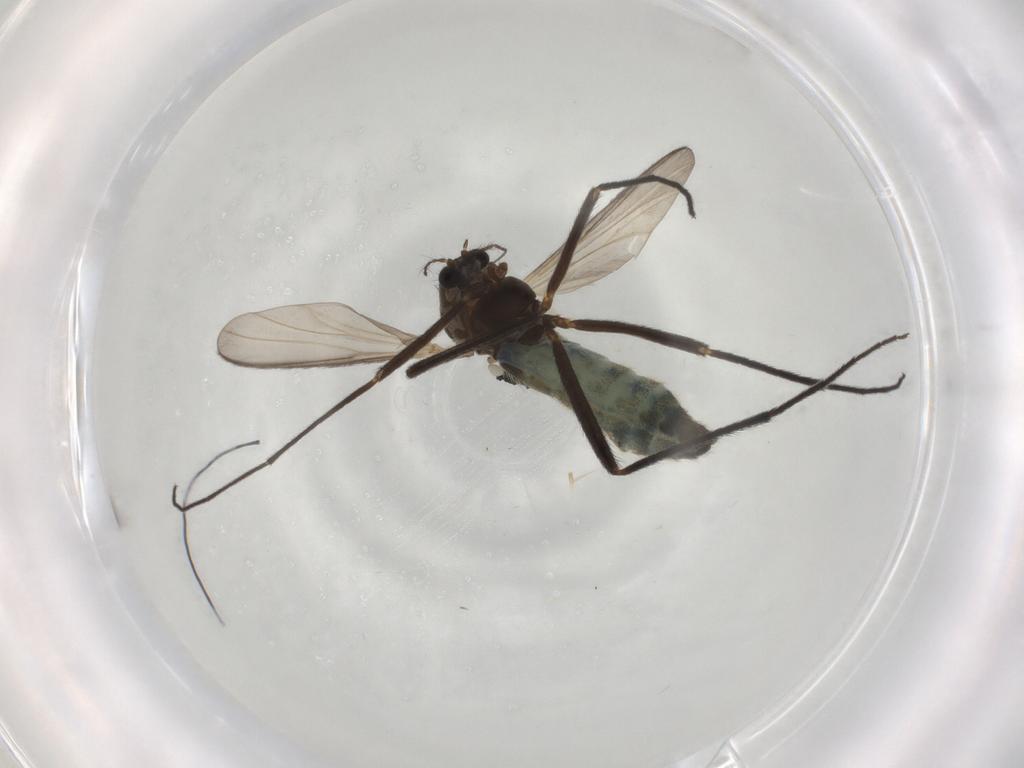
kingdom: Animalia
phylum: Arthropoda
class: Insecta
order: Diptera
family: Chironomidae
